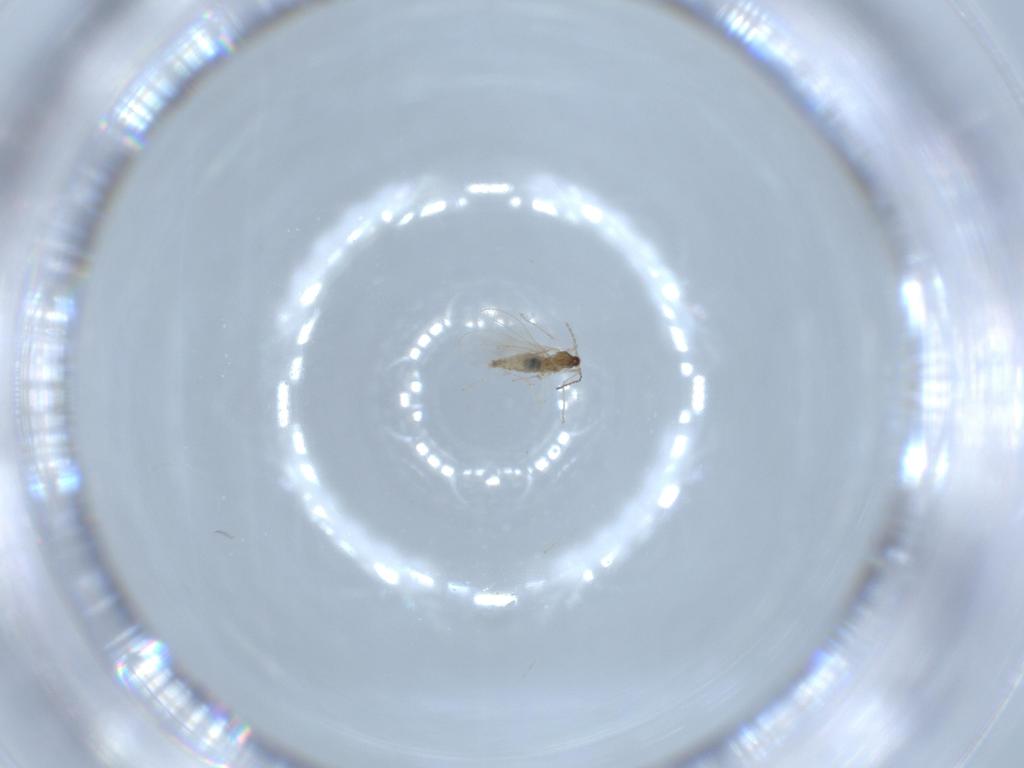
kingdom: Animalia
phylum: Arthropoda
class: Insecta
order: Diptera
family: Cecidomyiidae
